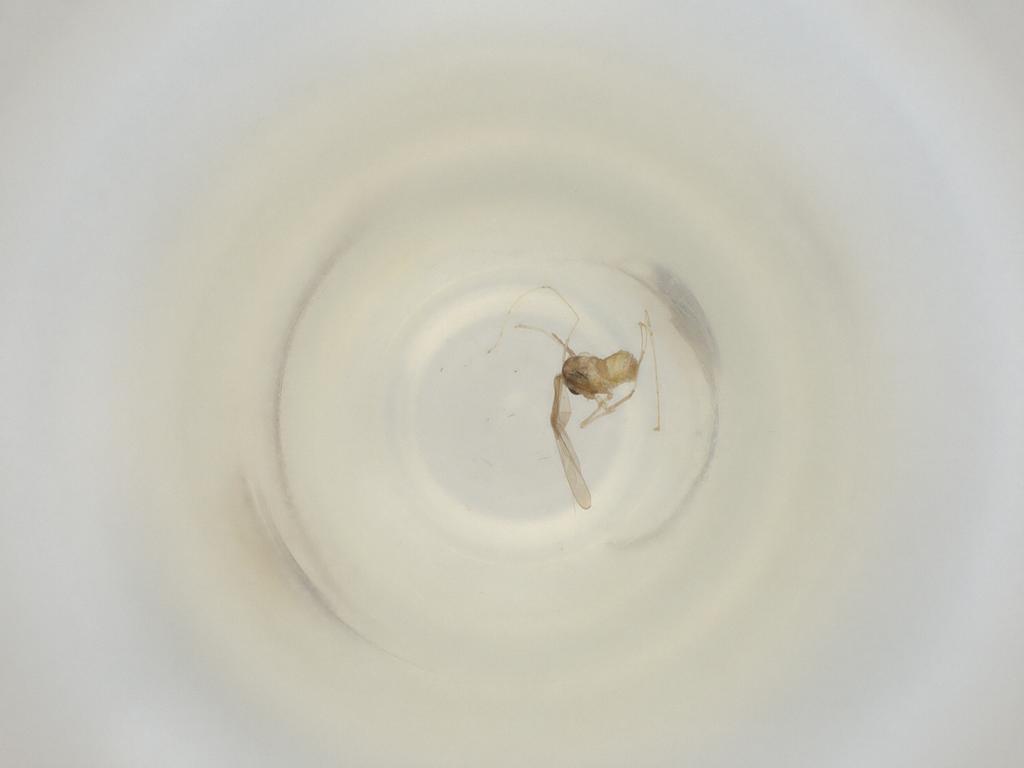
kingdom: Animalia
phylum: Arthropoda
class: Insecta
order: Diptera
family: Cecidomyiidae
